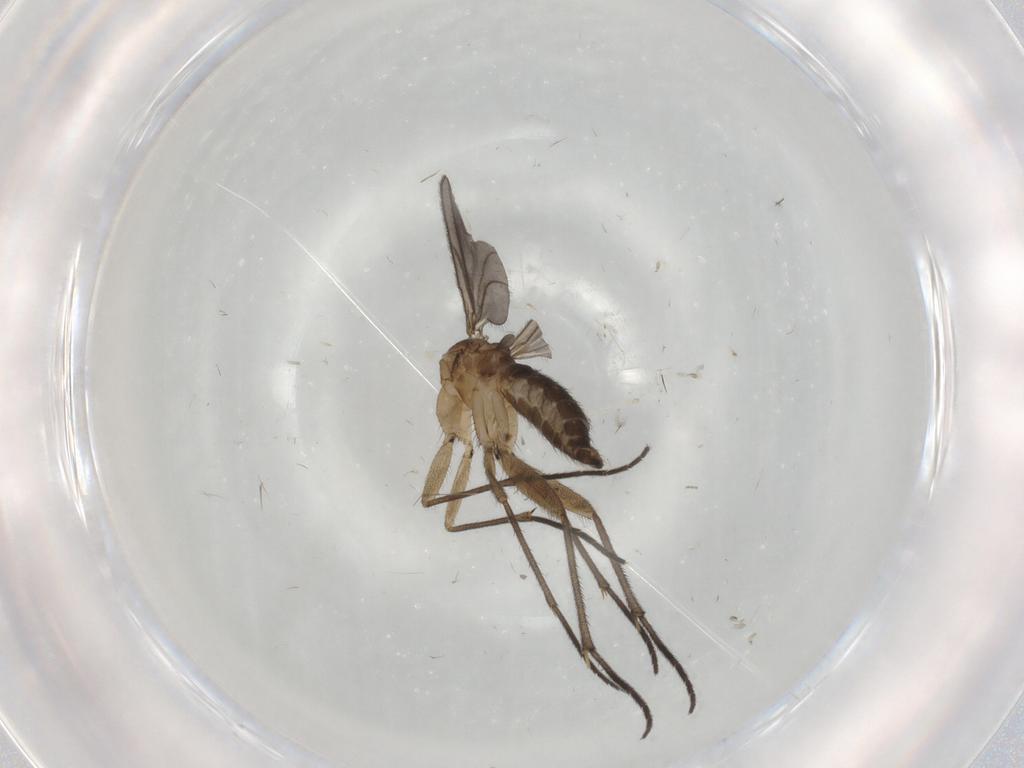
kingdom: Animalia
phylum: Arthropoda
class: Insecta
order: Diptera
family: Cecidomyiidae
